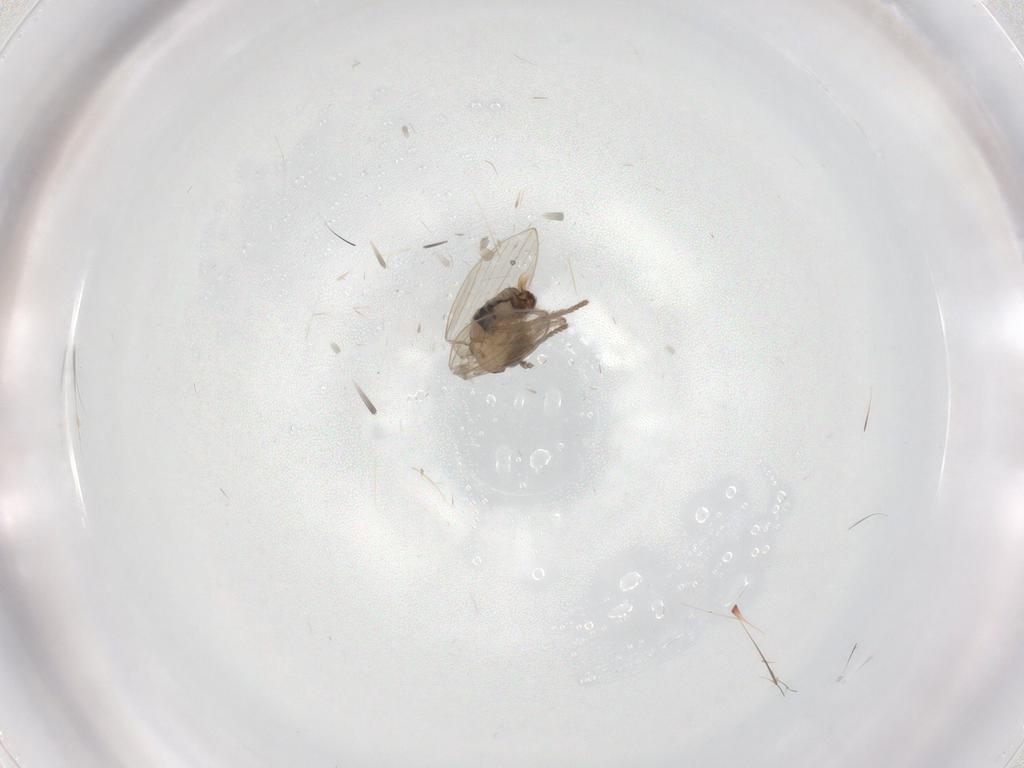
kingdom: Animalia
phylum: Arthropoda
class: Insecta
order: Diptera
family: Psychodidae
